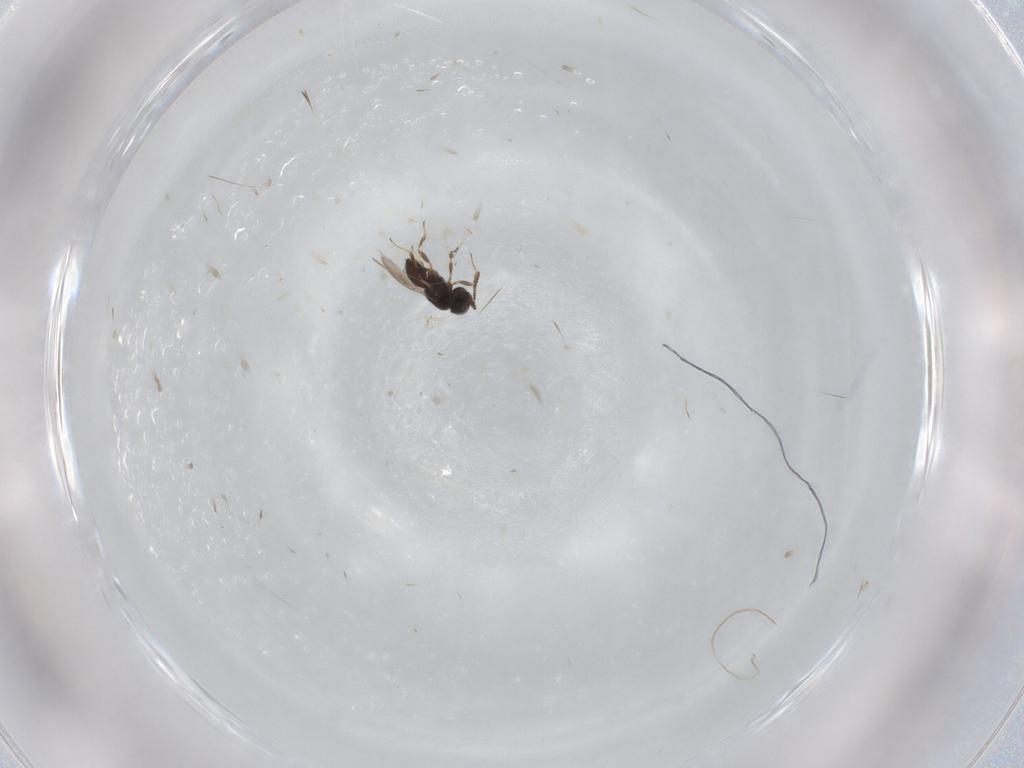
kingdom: Animalia
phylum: Arthropoda
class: Insecta
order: Hymenoptera
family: Scelionidae
